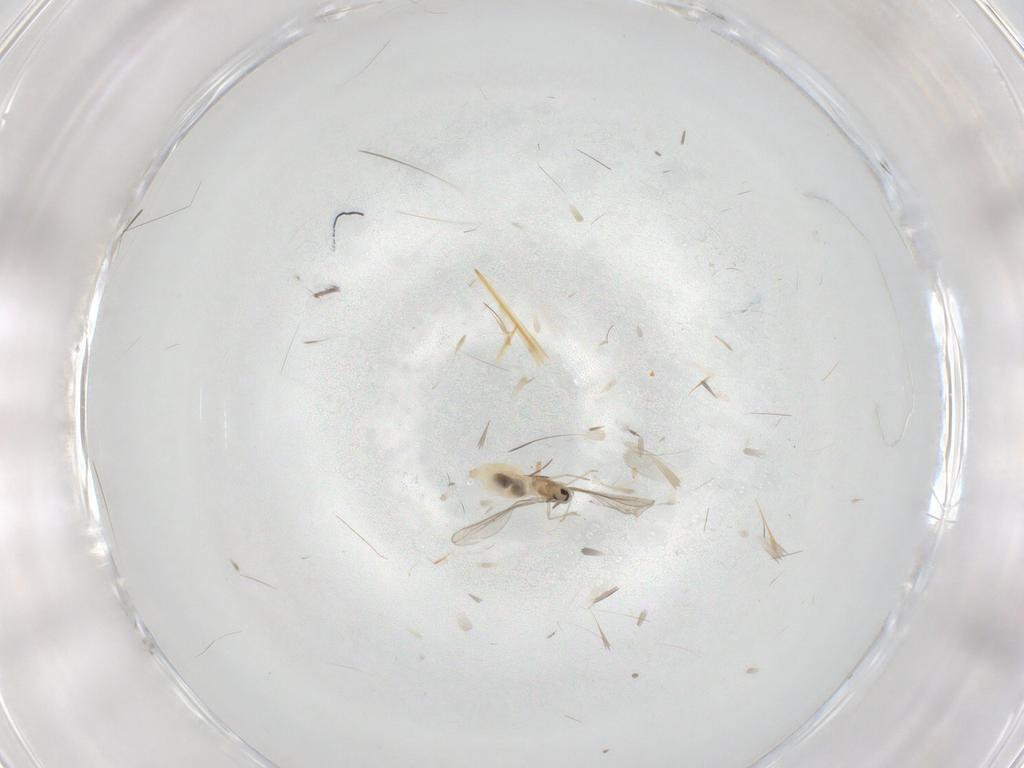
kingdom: Animalia
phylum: Arthropoda
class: Insecta
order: Diptera
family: Cecidomyiidae
